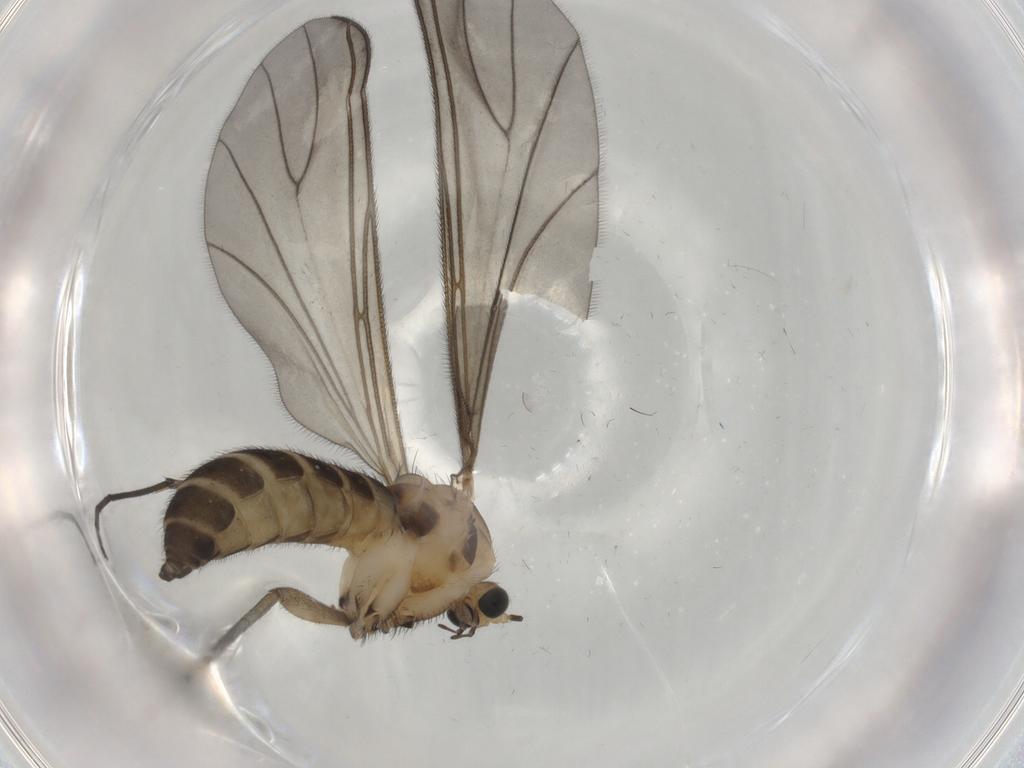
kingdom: Animalia
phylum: Arthropoda
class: Insecta
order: Diptera
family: Sciaridae
